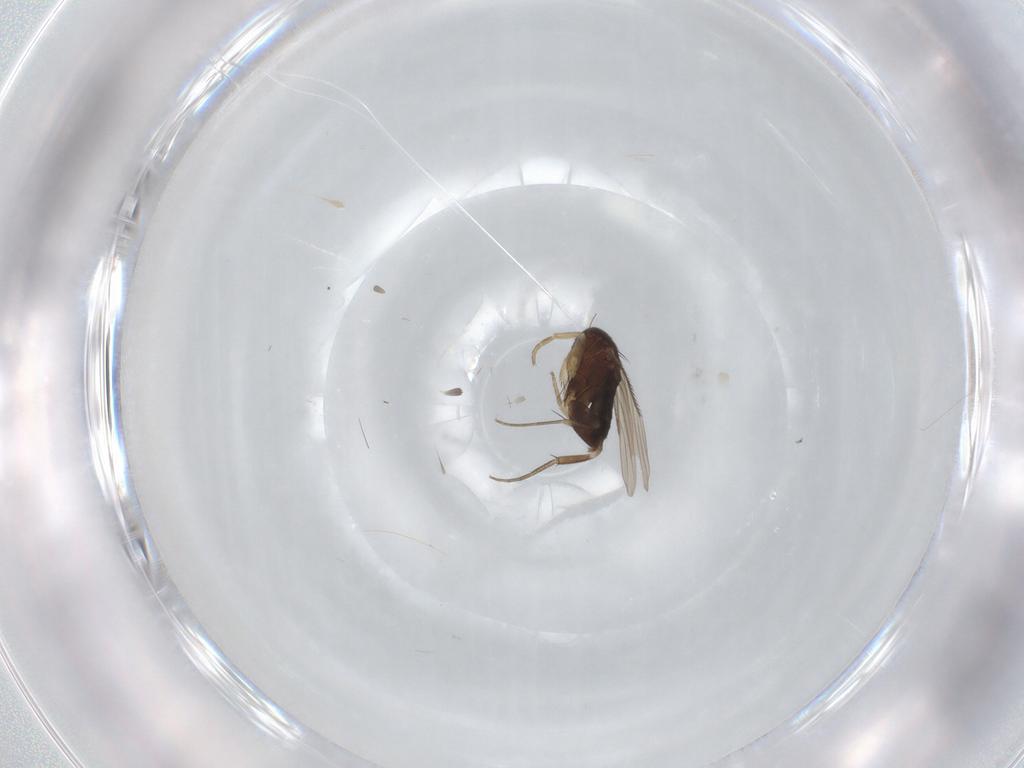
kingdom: Animalia
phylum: Arthropoda
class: Insecta
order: Diptera
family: Phoridae
